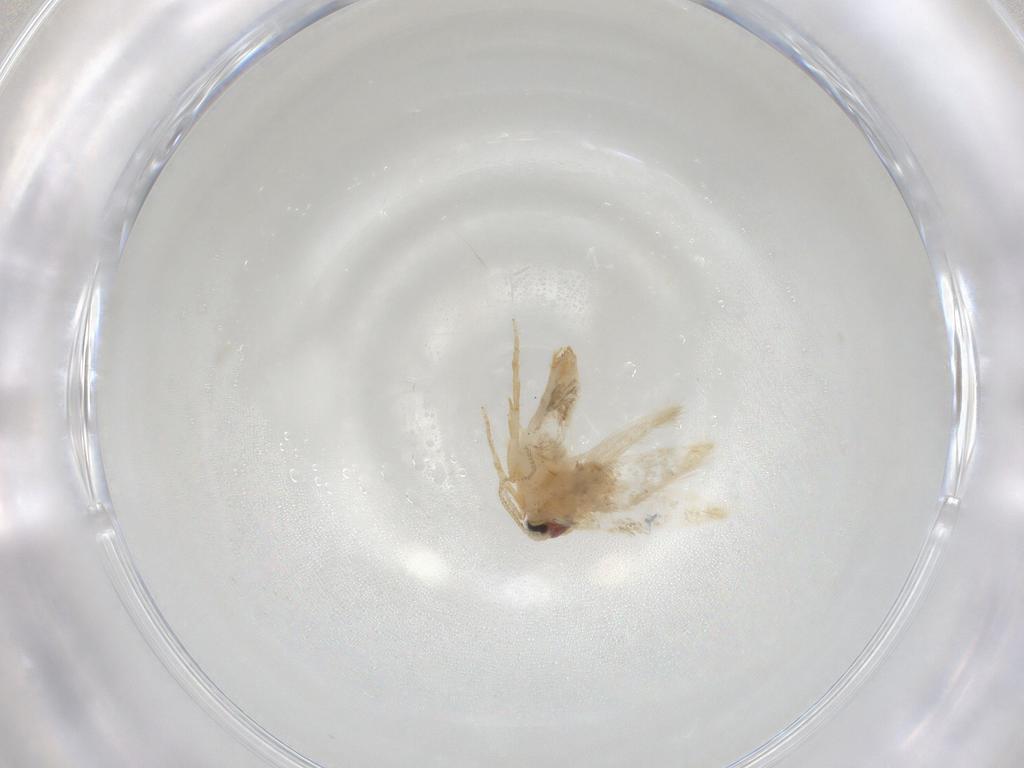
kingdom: Animalia
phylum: Arthropoda
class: Insecta
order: Lepidoptera
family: Nepticulidae
